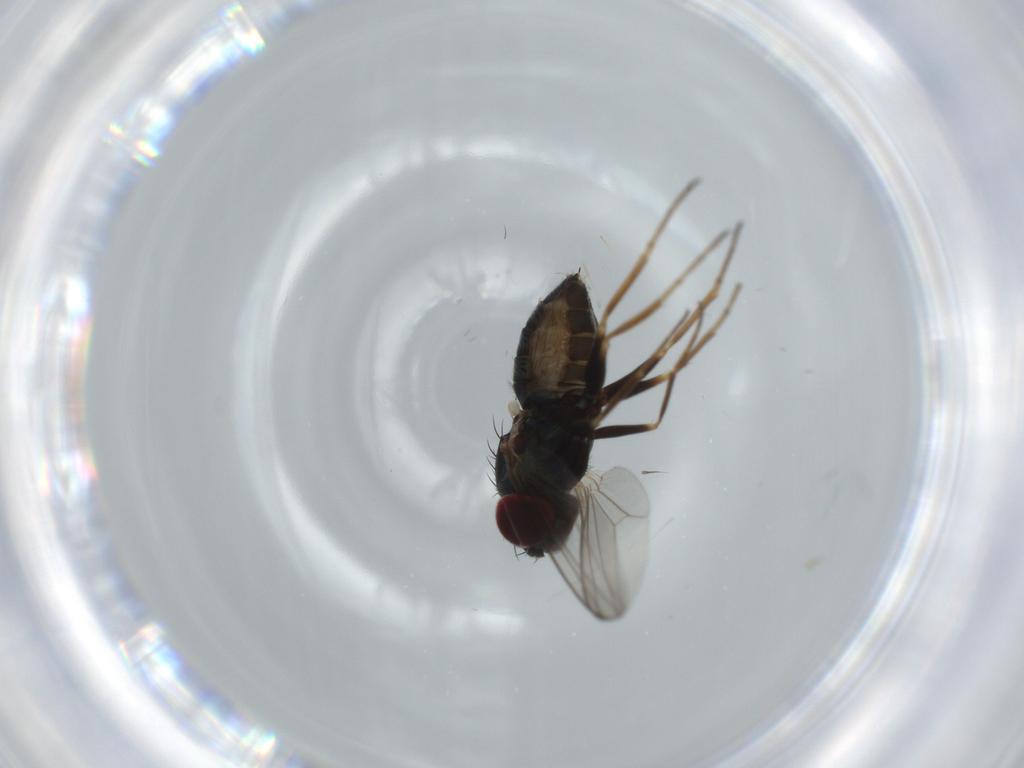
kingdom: Animalia
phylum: Arthropoda
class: Insecta
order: Diptera
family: Dolichopodidae
